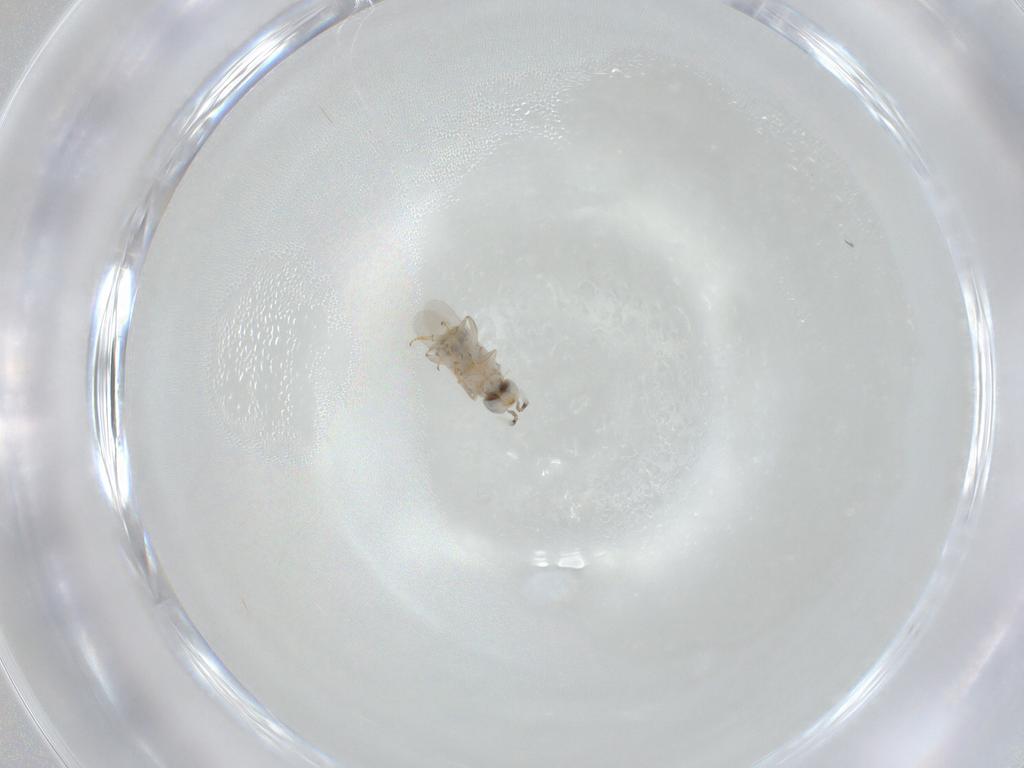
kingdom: Animalia
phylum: Arthropoda
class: Insecta
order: Hymenoptera
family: Encyrtidae
